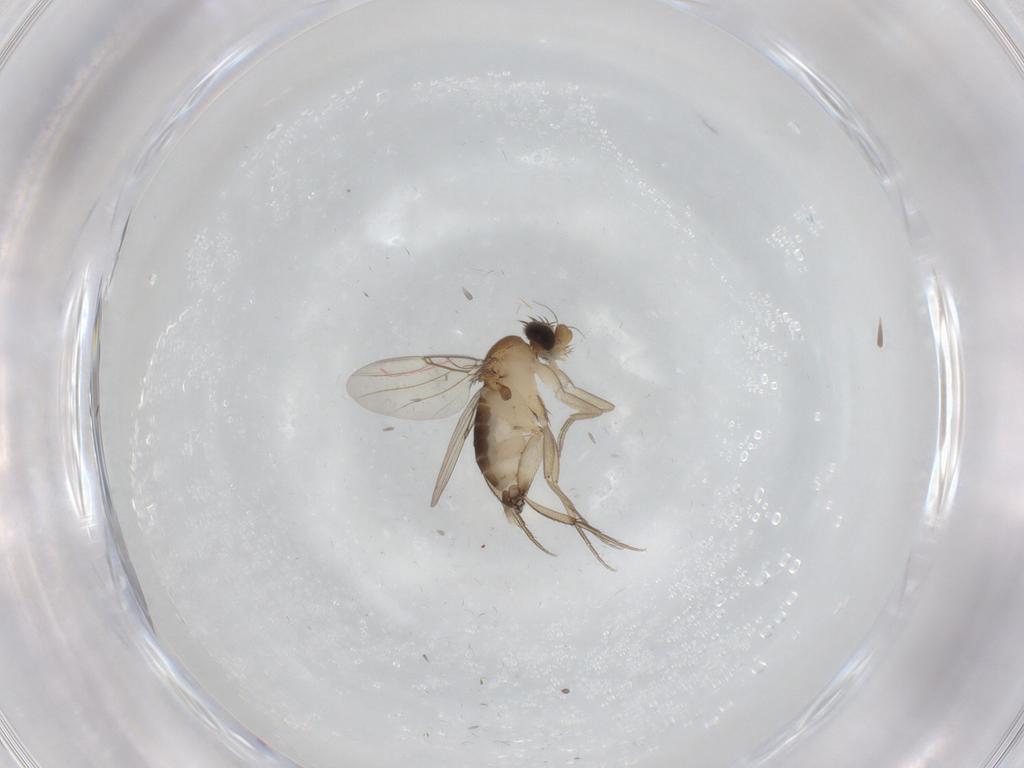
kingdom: Animalia
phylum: Arthropoda
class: Insecta
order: Diptera
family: Phoridae
